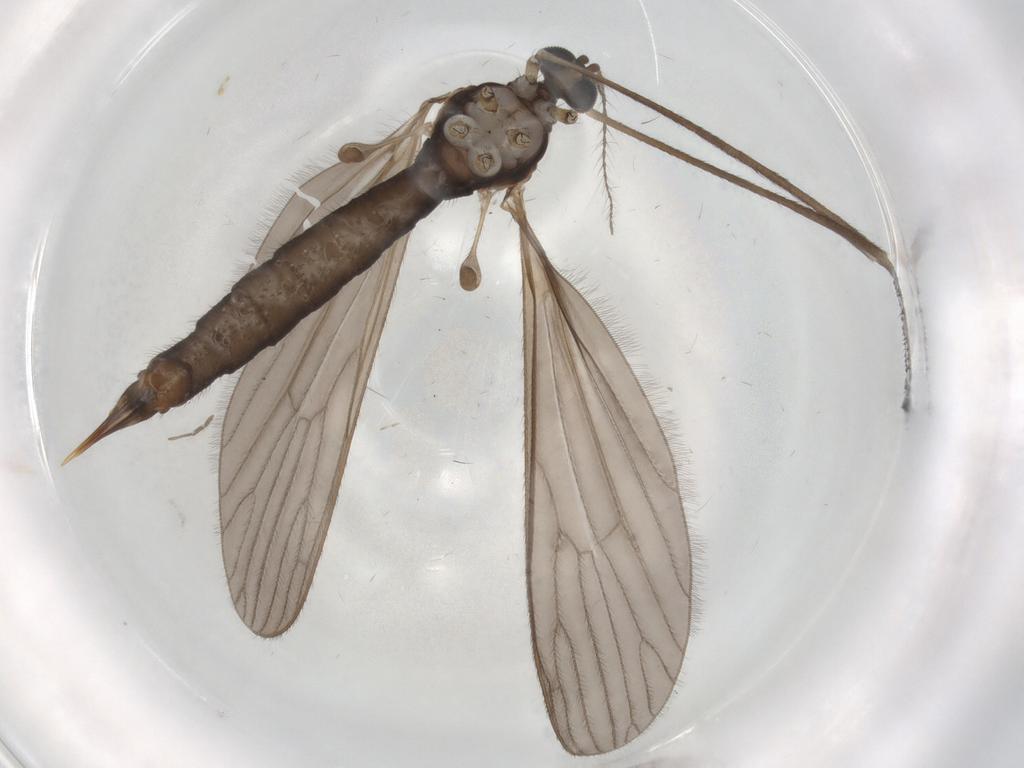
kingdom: Animalia
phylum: Arthropoda
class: Insecta
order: Diptera
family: Limoniidae
